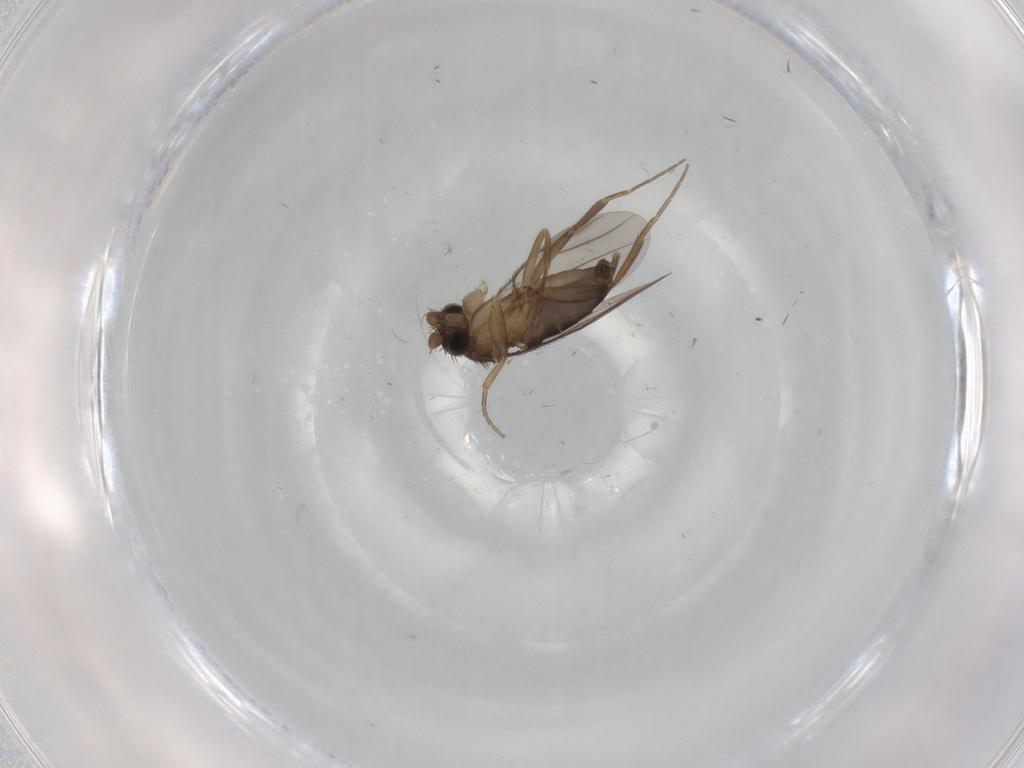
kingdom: Animalia
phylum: Arthropoda
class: Insecta
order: Diptera
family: Phoridae
